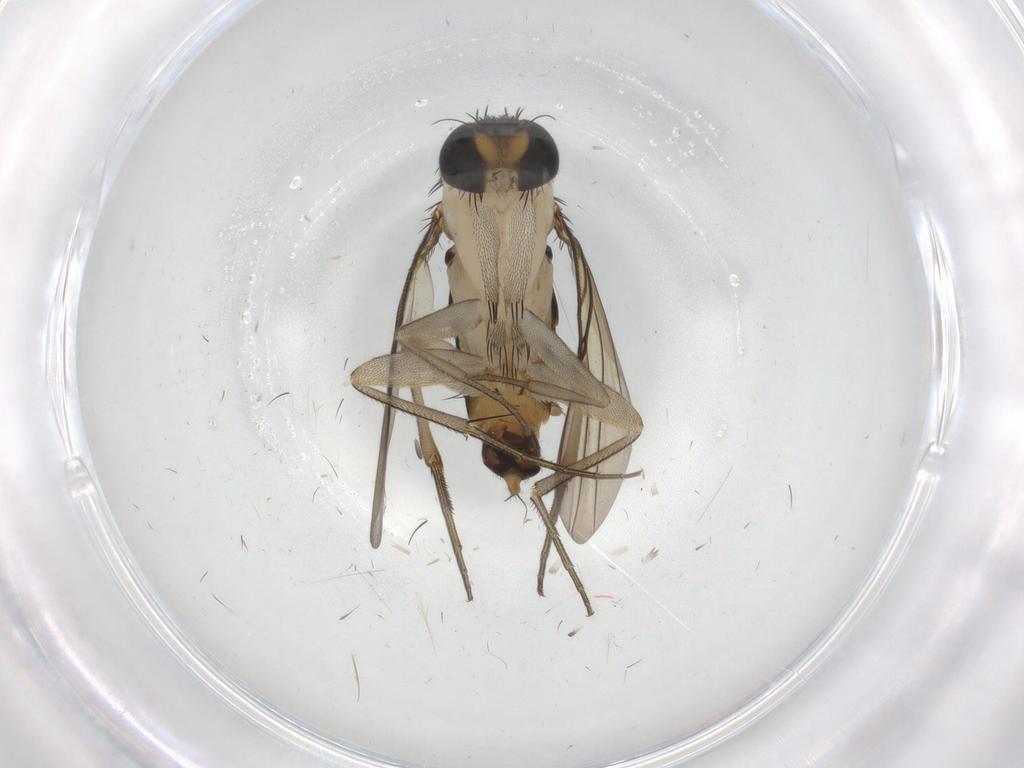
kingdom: Animalia
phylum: Arthropoda
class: Insecta
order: Diptera
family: Phoridae
